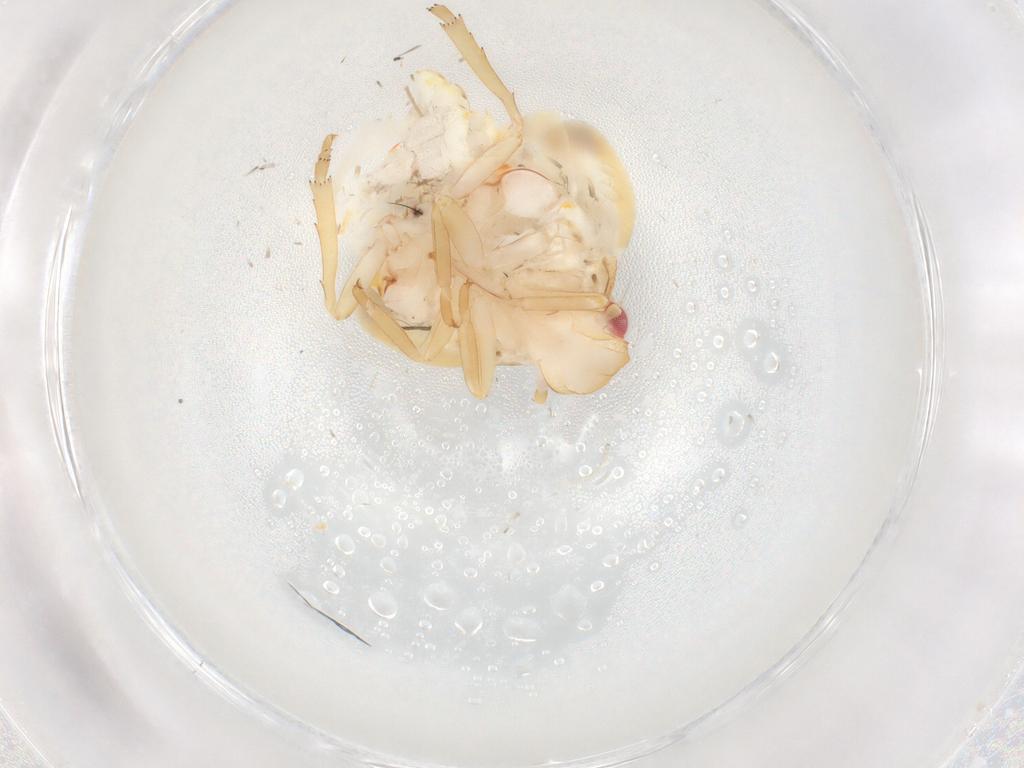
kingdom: Animalia
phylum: Arthropoda
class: Insecta
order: Hemiptera
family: Flatidae
